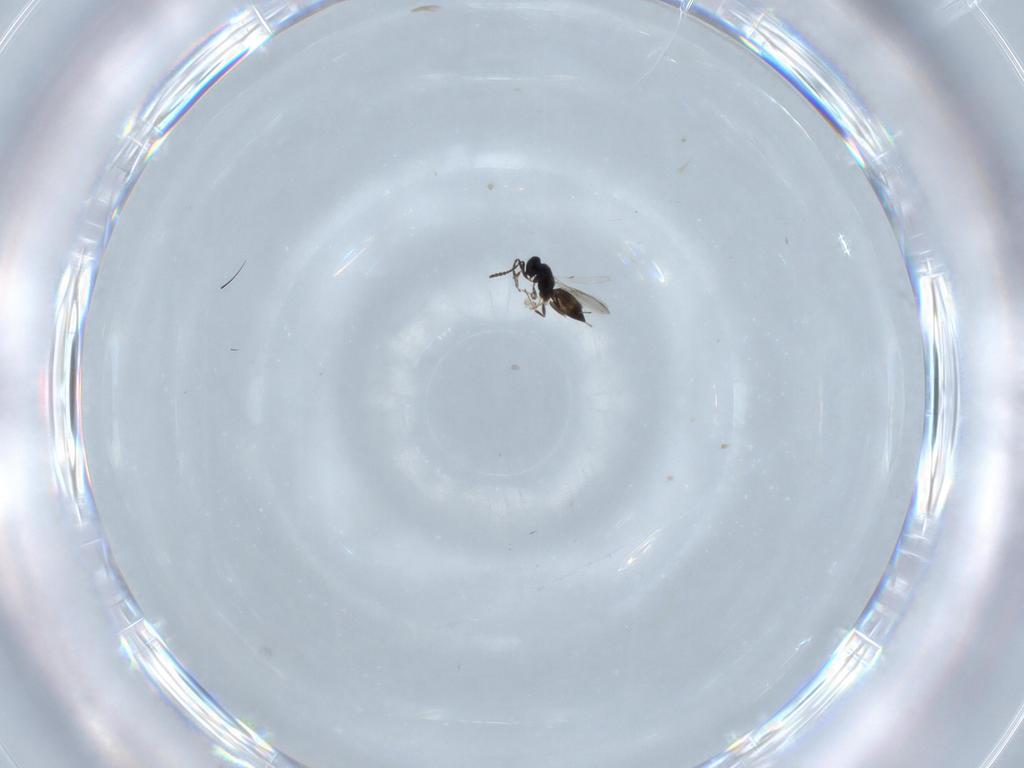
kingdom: Animalia
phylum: Arthropoda
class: Insecta
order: Hymenoptera
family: Scelionidae
